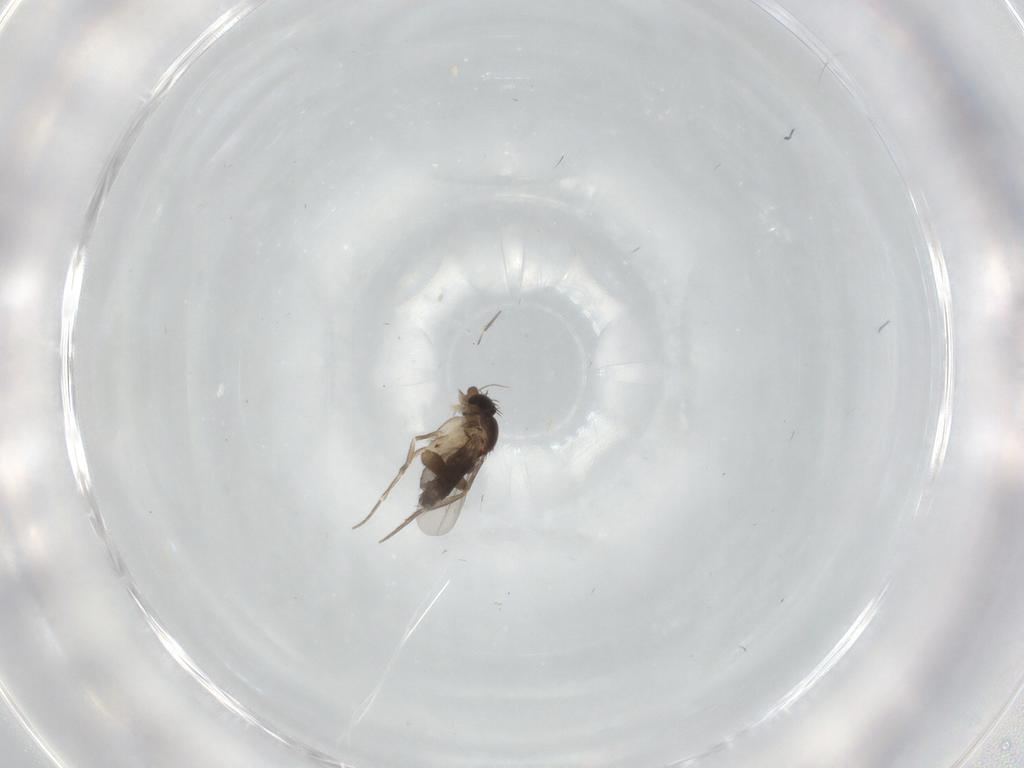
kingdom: Animalia
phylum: Arthropoda
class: Insecta
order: Diptera
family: Phoridae
